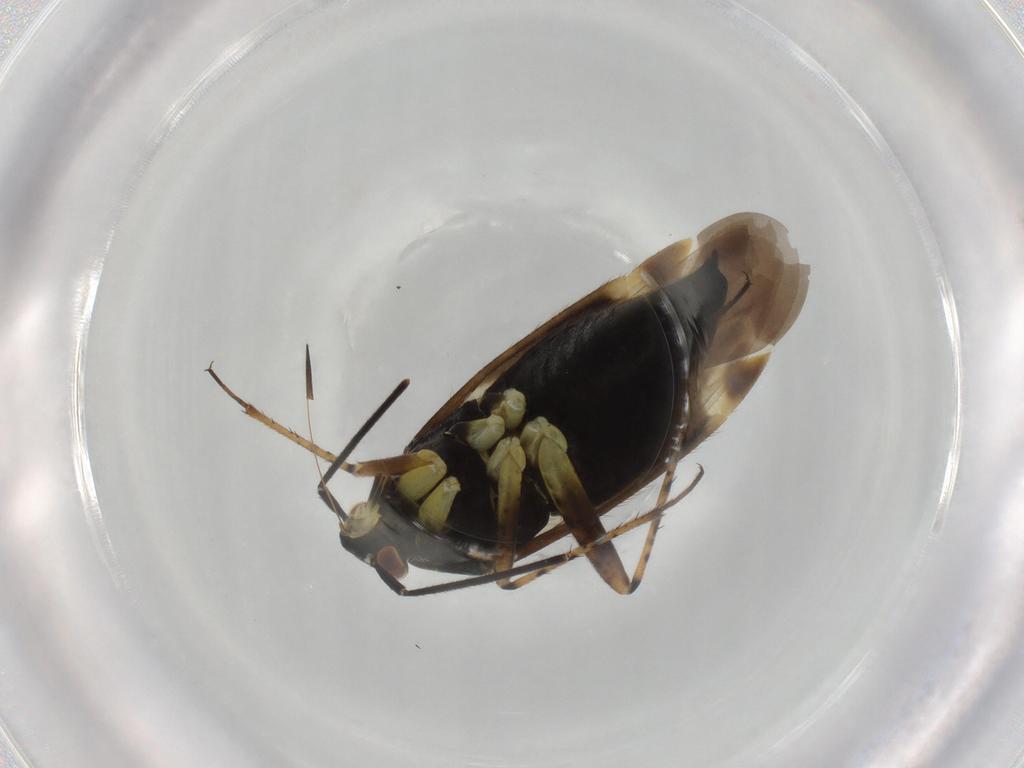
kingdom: Animalia
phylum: Arthropoda
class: Insecta
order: Hemiptera
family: Miridae
